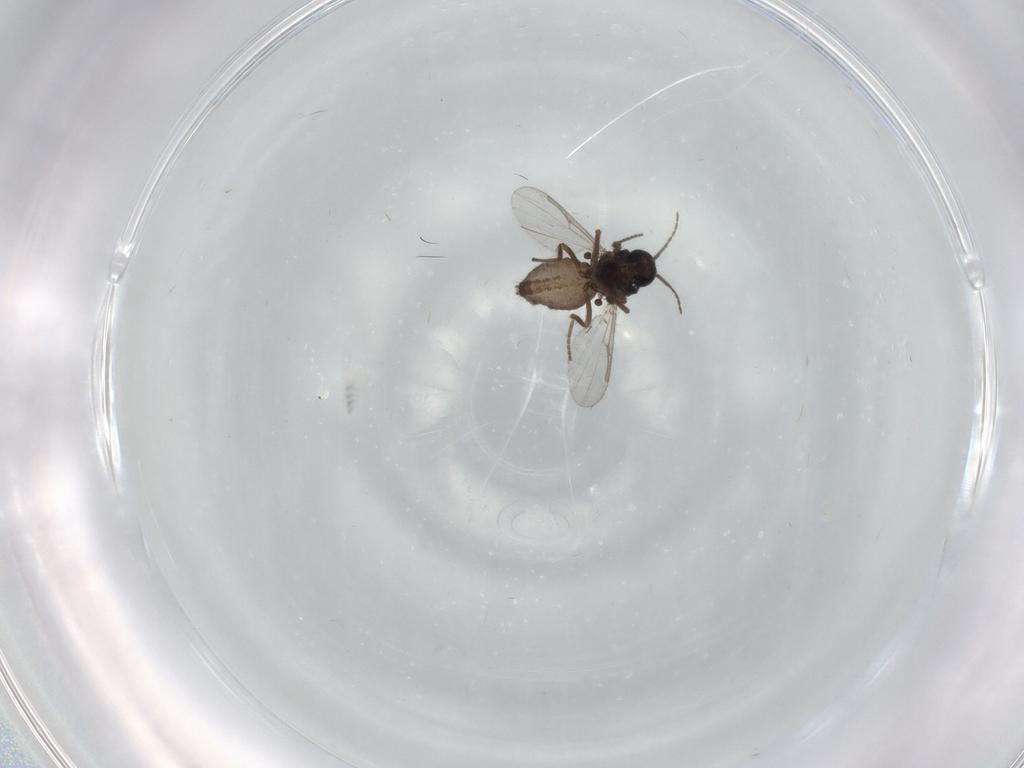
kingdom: Animalia
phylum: Arthropoda
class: Insecta
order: Diptera
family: Ceratopogonidae
